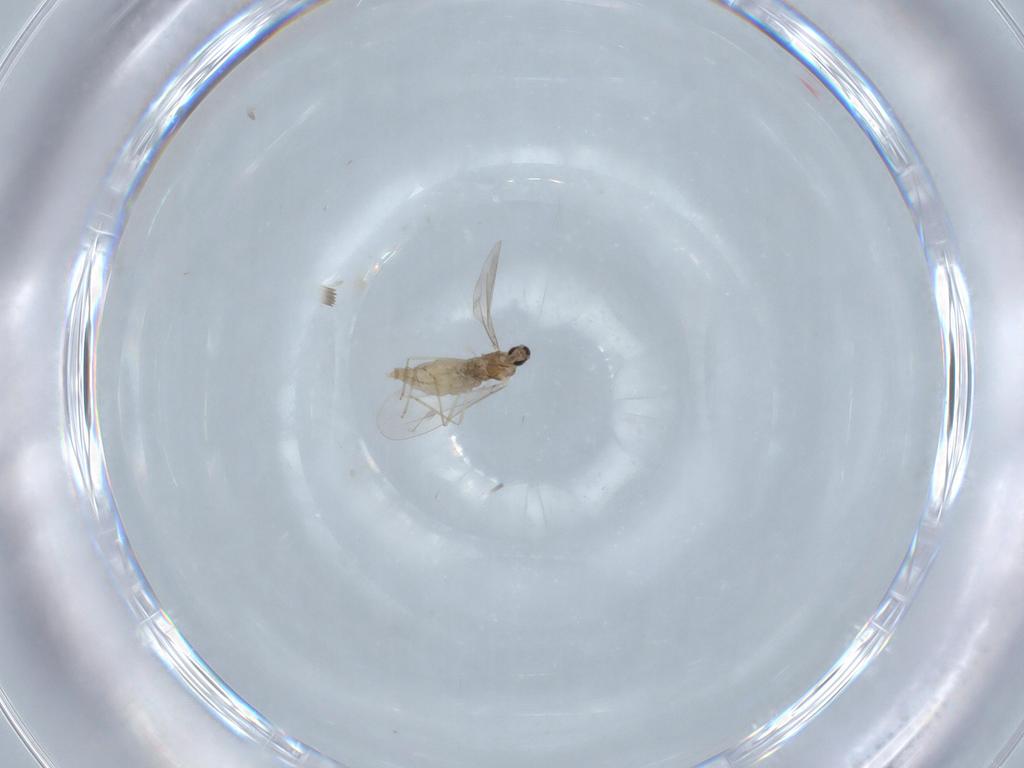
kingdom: Animalia
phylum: Arthropoda
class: Insecta
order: Diptera
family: Cecidomyiidae
